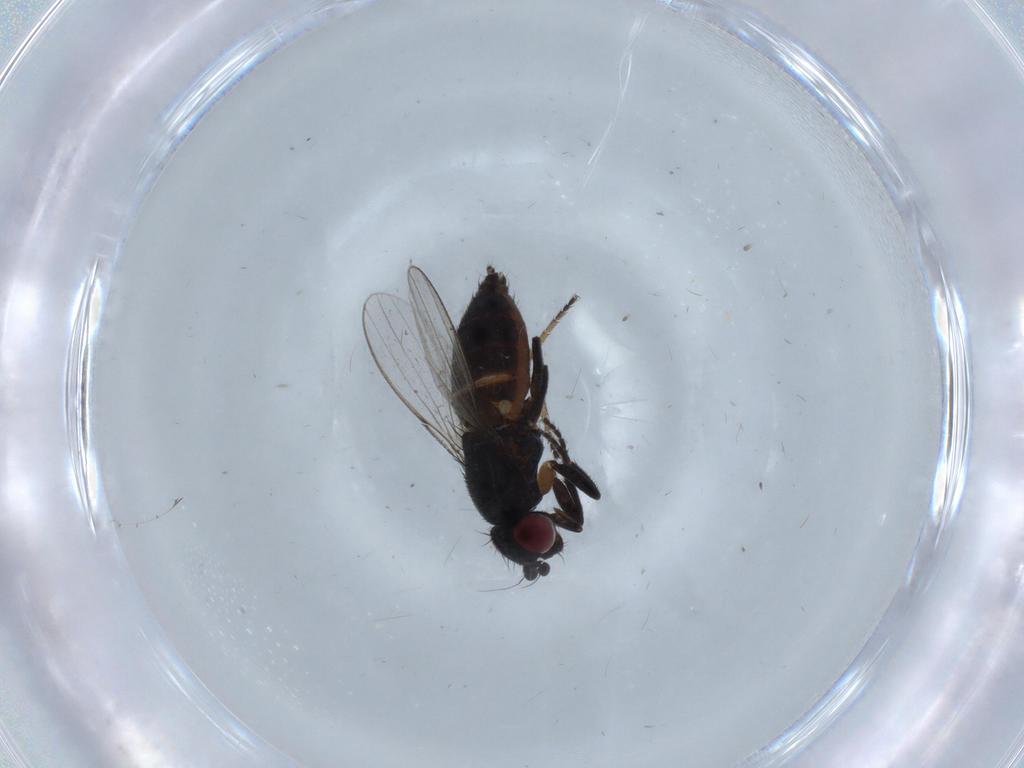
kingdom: Animalia
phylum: Arthropoda
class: Insecta
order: Diptera
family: Milichiidae
